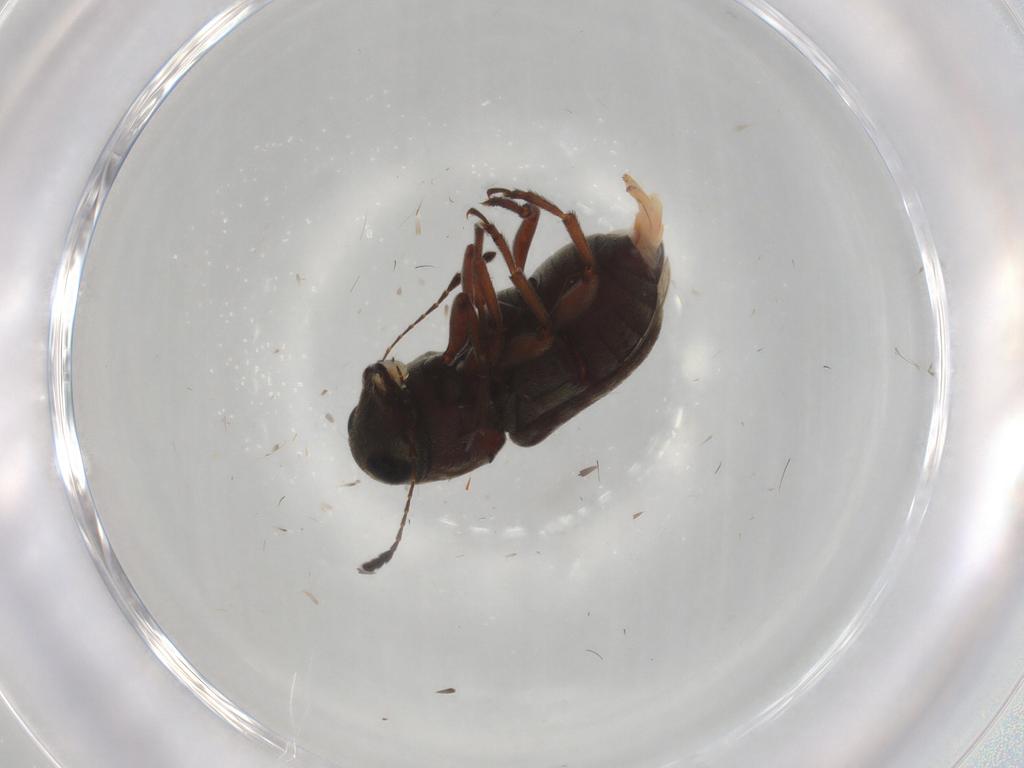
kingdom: Animalia
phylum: Arthropoda
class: Insecta
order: Coleoptera
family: Anthribidae
